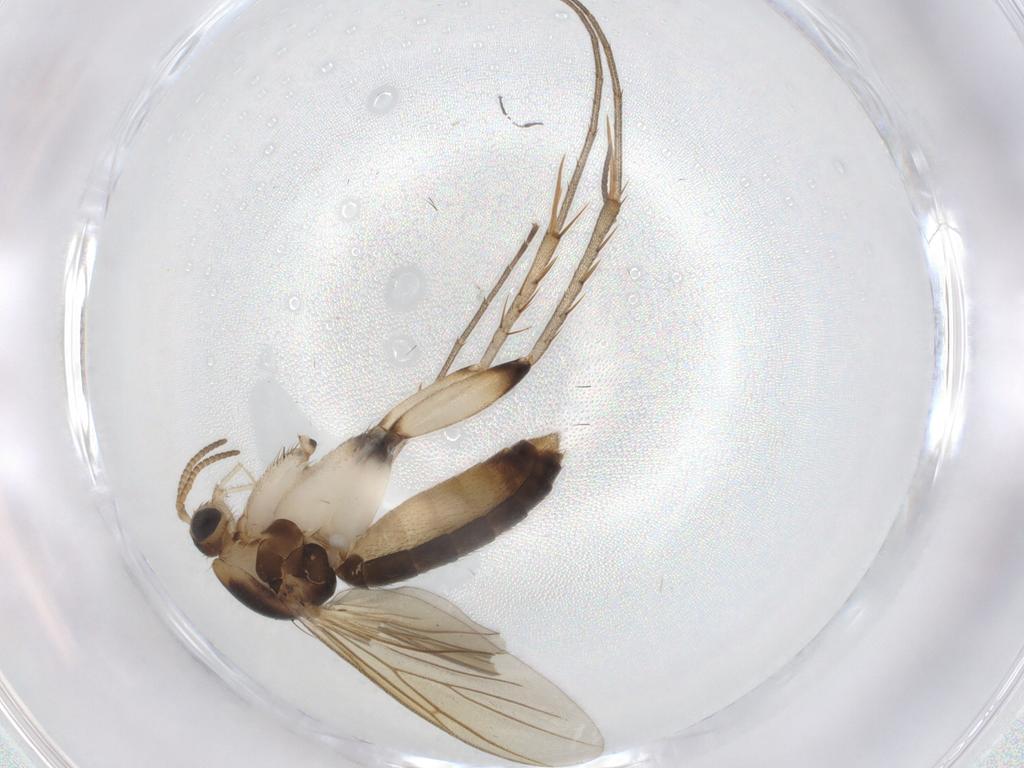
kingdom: Animalia
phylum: Arthropoda
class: Insecta
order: Diptera
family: Mycetophilidae
